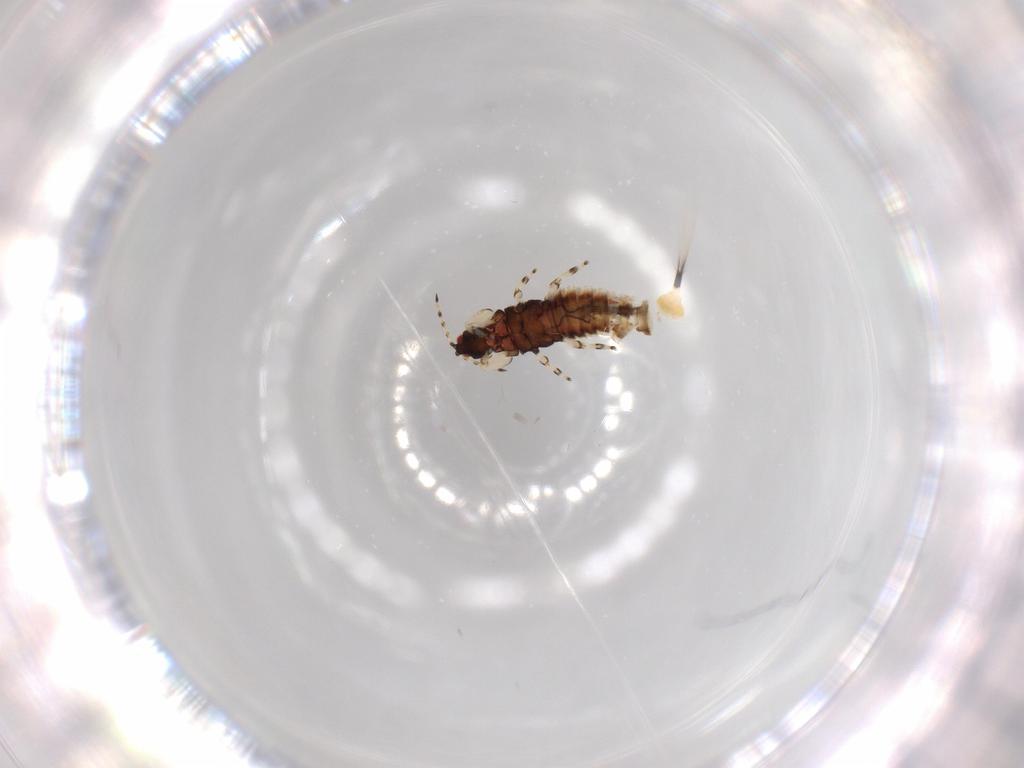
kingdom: Animalia
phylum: Arthropoda
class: Insecta
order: Thysanoptera
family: Phlaeothripidae
